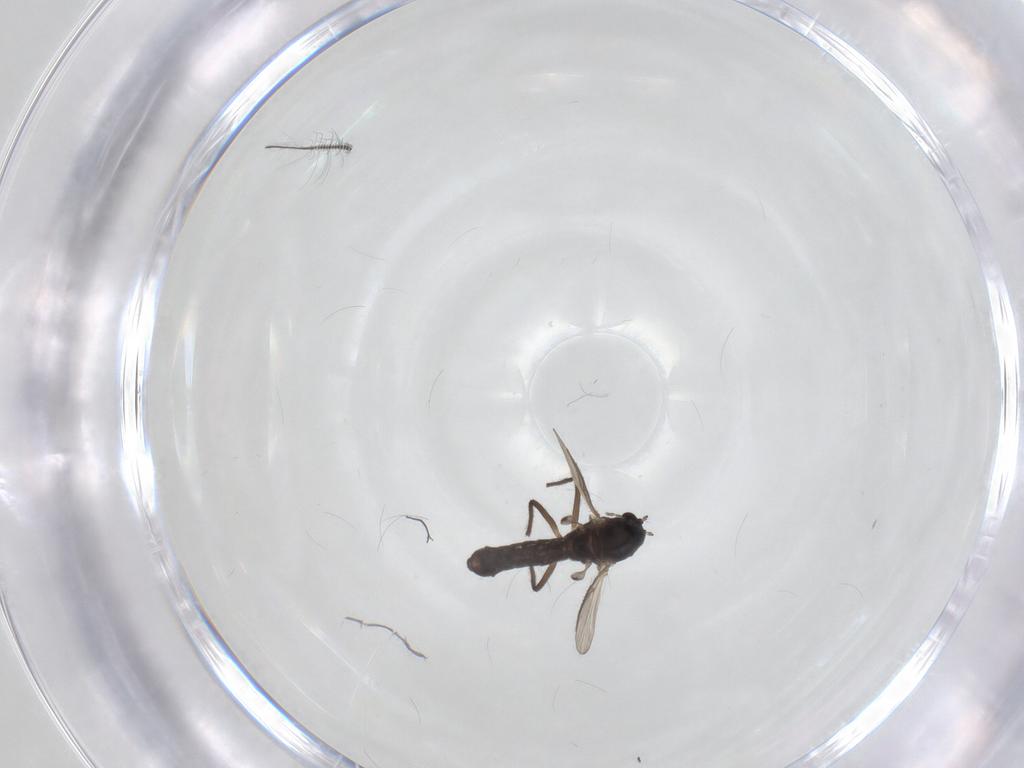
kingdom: Animalia
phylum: Arthropoda
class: Insecta
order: Diptera
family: Chironomidae
